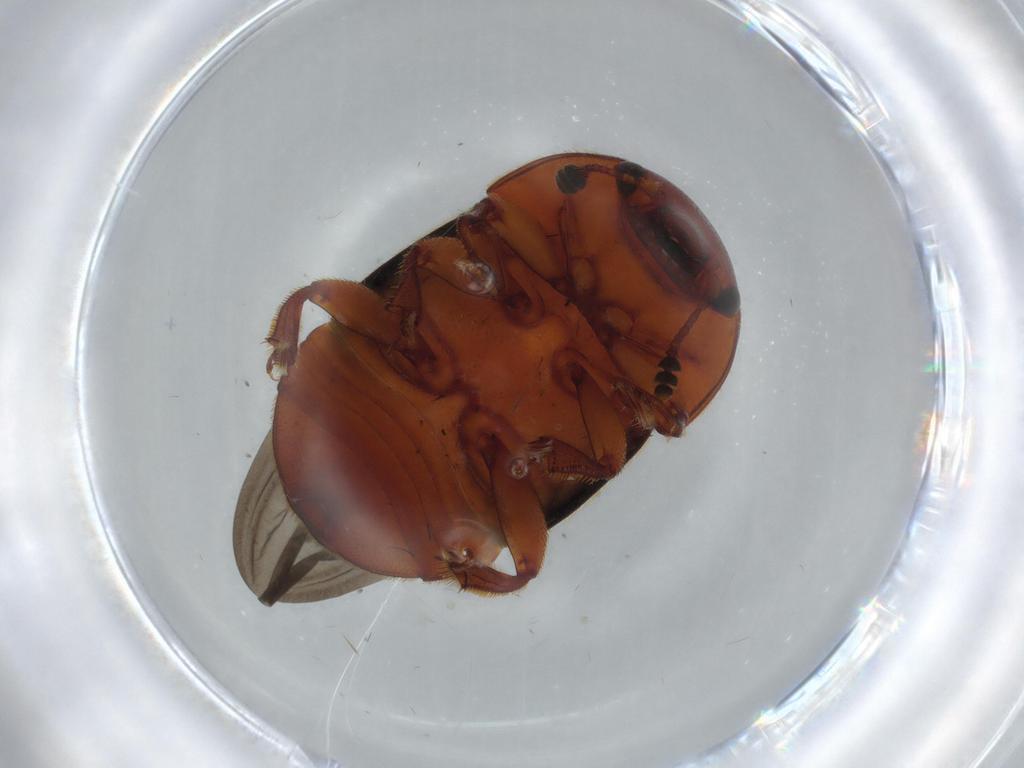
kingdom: Animalia
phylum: Arthropoda
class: Insecta
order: Coleoptera
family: Nitidulidae
